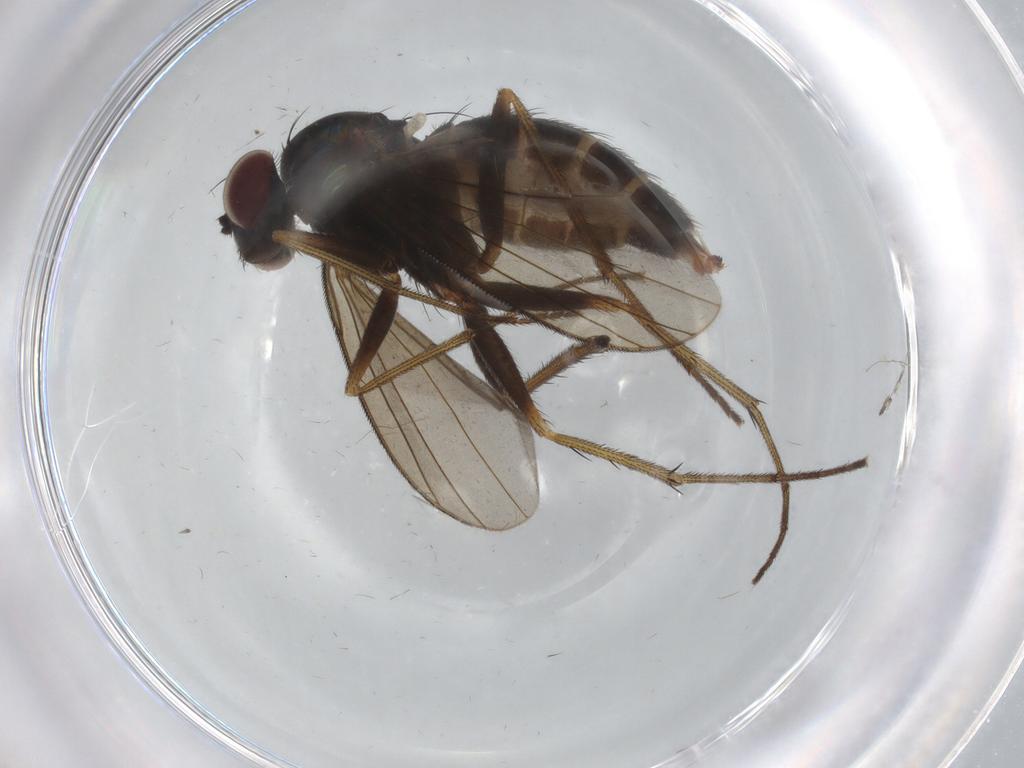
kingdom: Animalia
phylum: Arthropoda
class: Insecta
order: Diptera
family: Dolichopodidae
